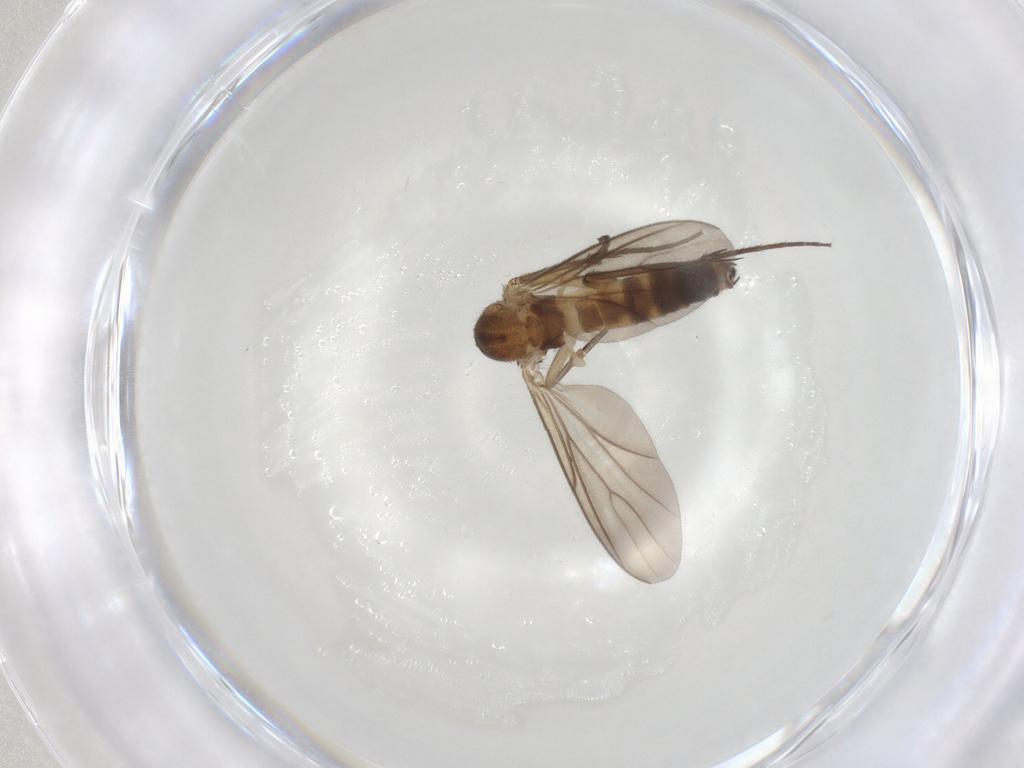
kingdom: Animalia
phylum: Arthropoda
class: Insecta
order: Diptera
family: Mycetophilidae
